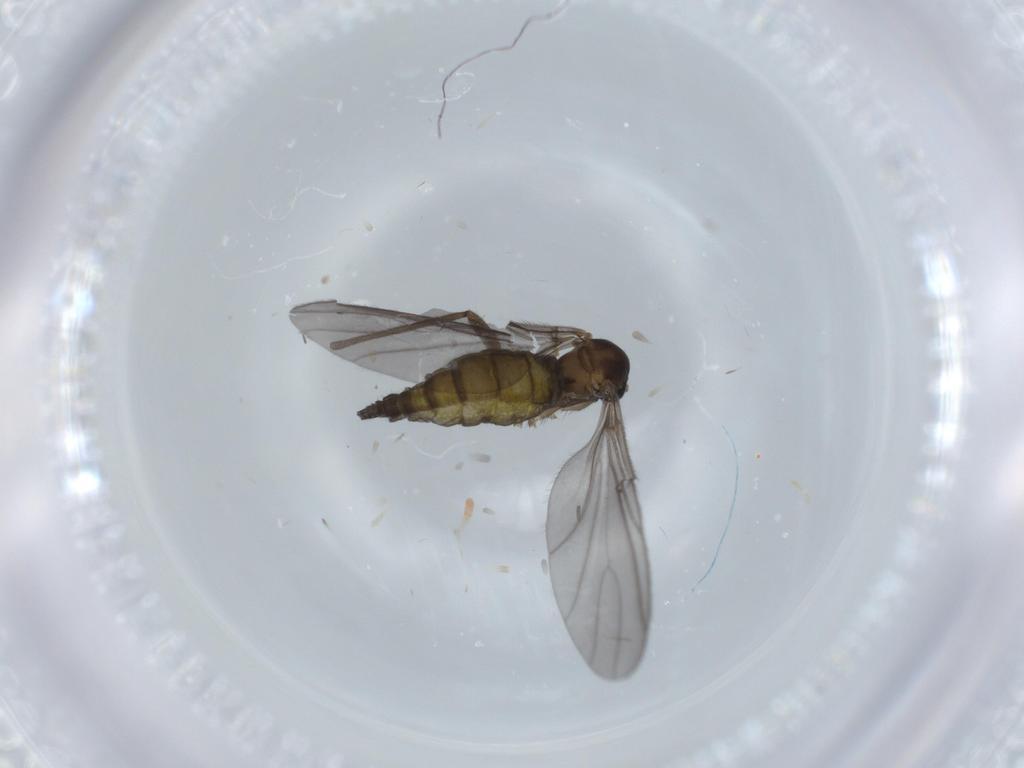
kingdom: Animalia
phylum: Arthropoda
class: Insecta
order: Diptera
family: Sciaridae
